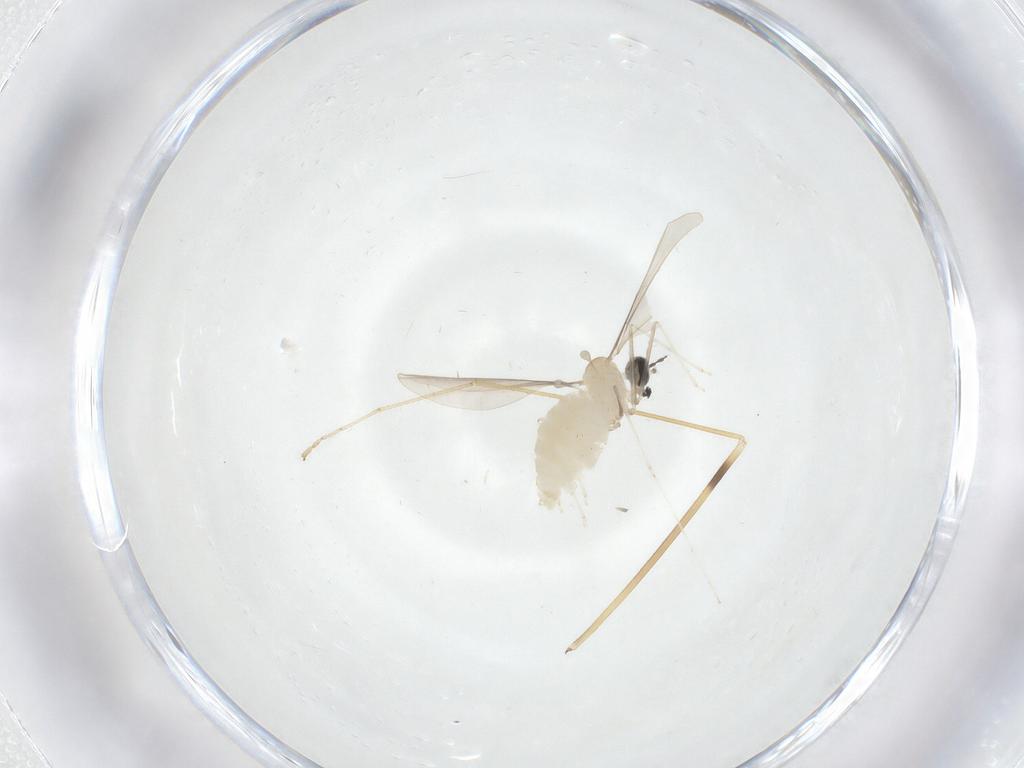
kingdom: Animalia
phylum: Arthropoda
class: Insecta
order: Diptera
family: Cecidomyiidae
